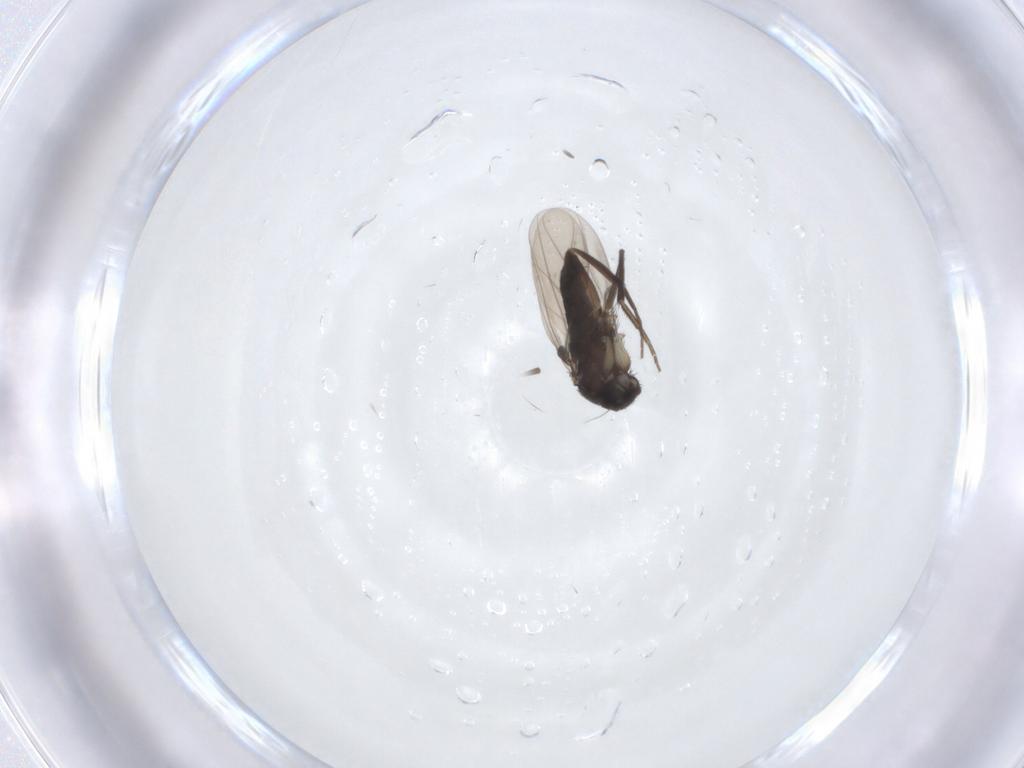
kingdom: Animalia
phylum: Arthropoda
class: Insecta
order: Diptera
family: Phoridae
